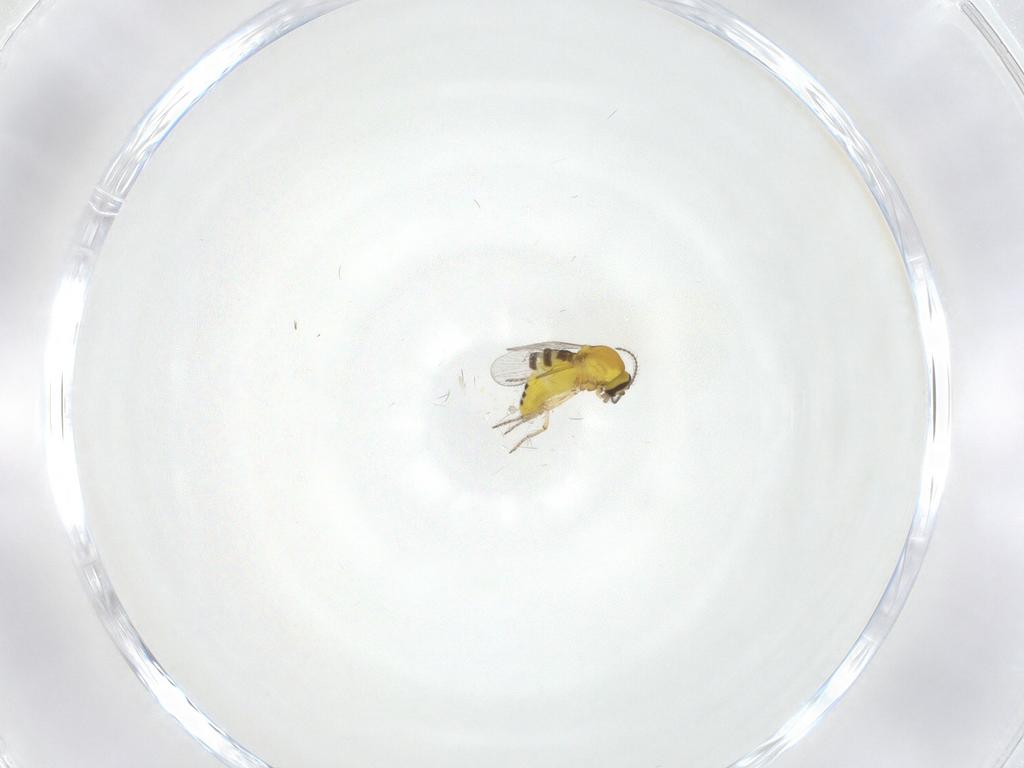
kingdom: Animalia
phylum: Arthropoda
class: Insecta
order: Diptera
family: Ceratopogonidae
